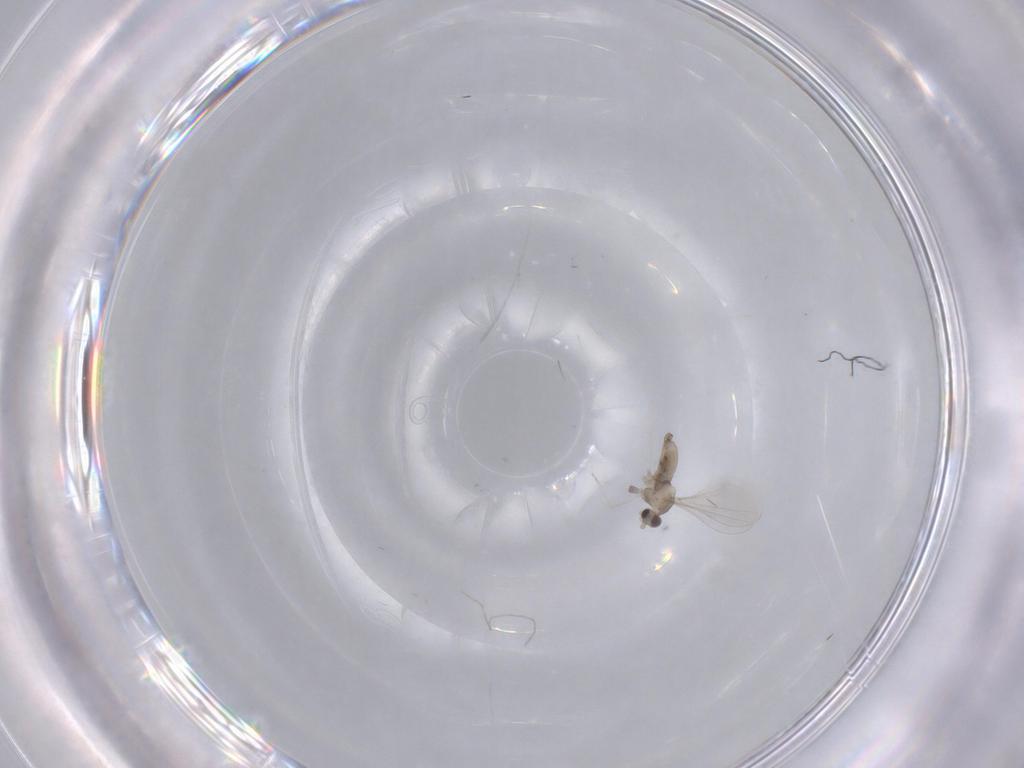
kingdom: Animalia
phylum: Arthropoda
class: Insecta
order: Diptera
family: Cecidomyiidae
